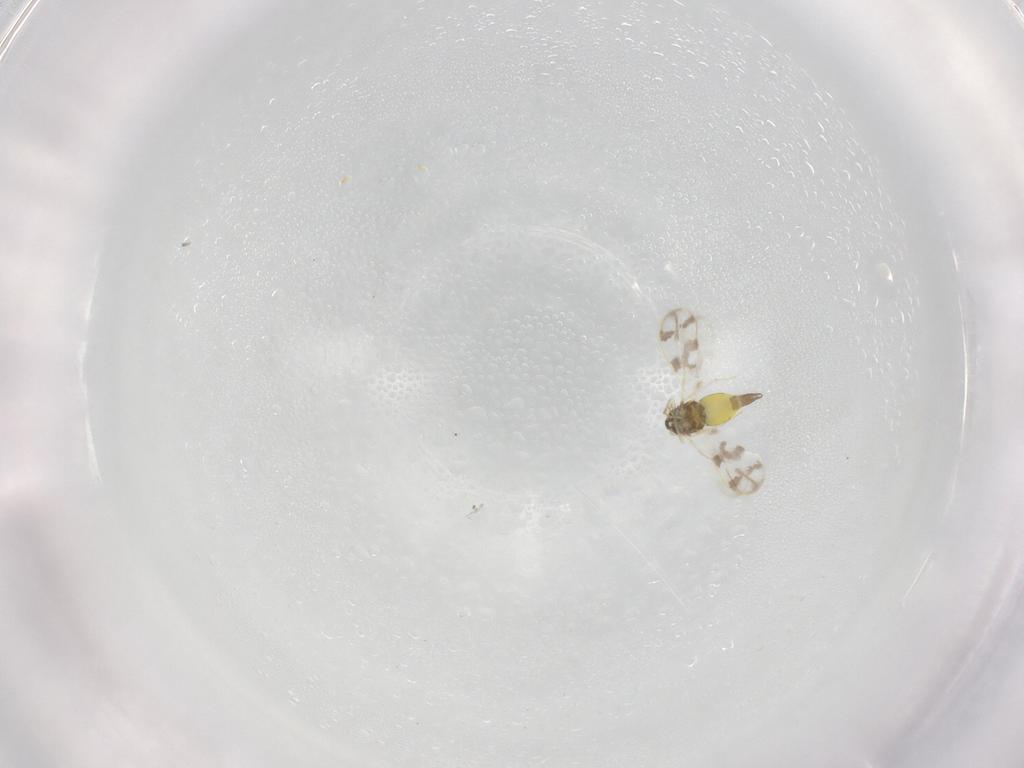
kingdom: Animalia
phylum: Arthropoda
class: Insecta
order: Hemiptera
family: Aleyrodidae
